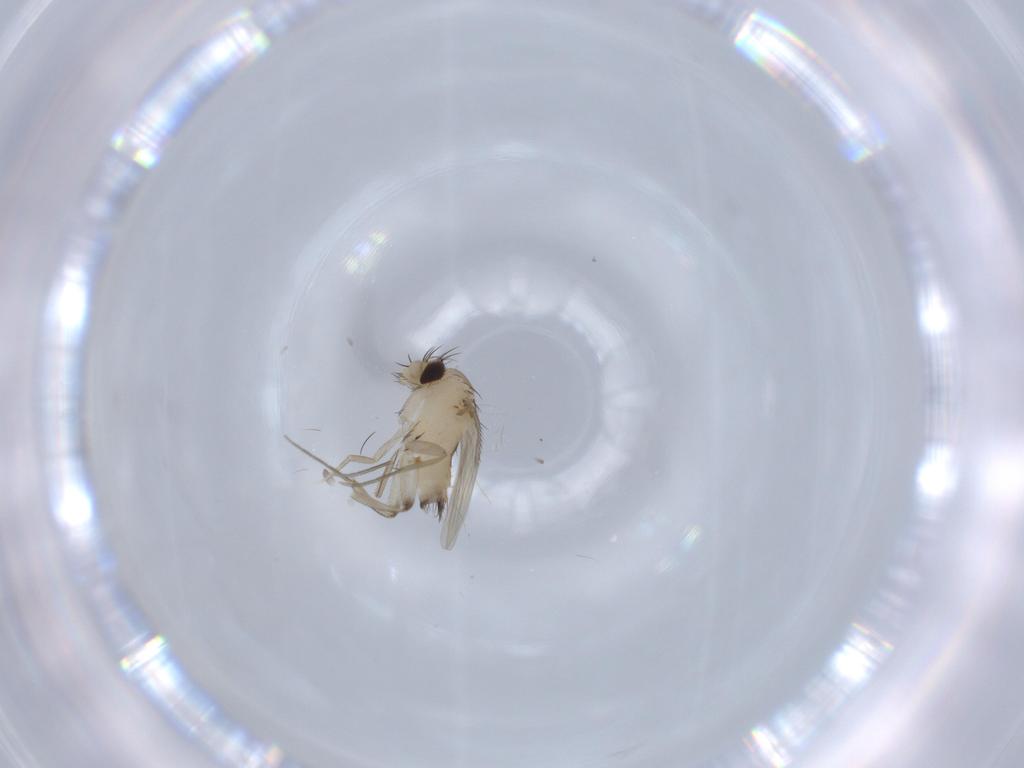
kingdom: Animalia
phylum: Arthropoda
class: Insecta
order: Diptera
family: Phoridae
